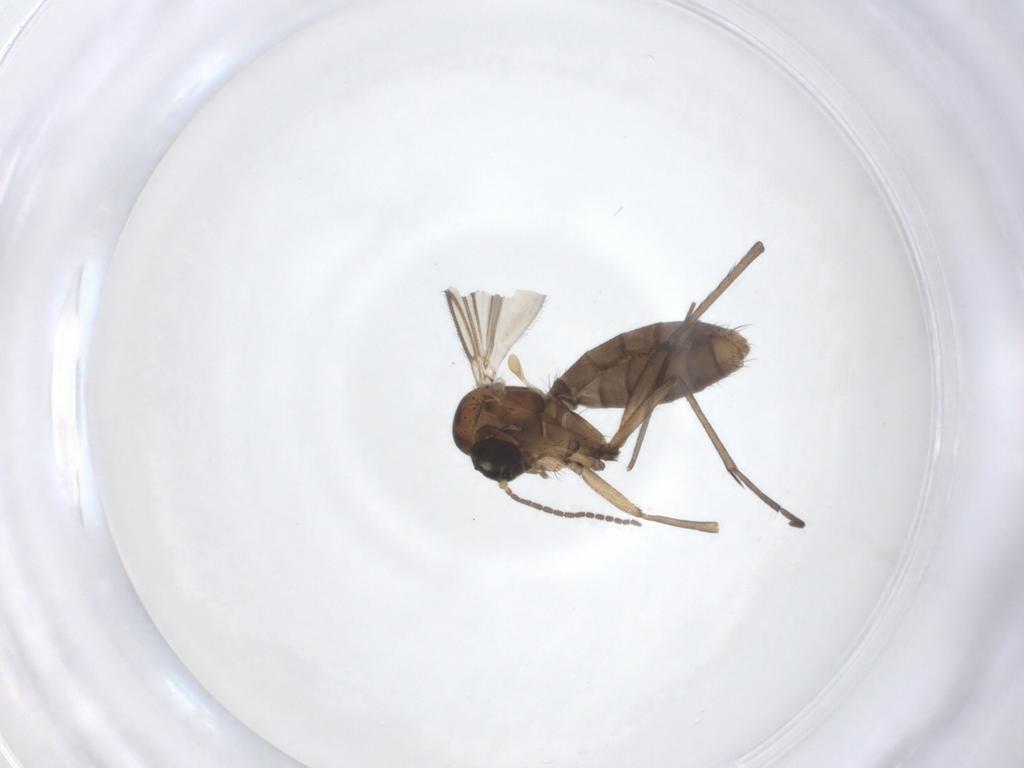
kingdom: Animalia
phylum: Arthropoda
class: Insecta
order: Diptera
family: Mycetophilidae
